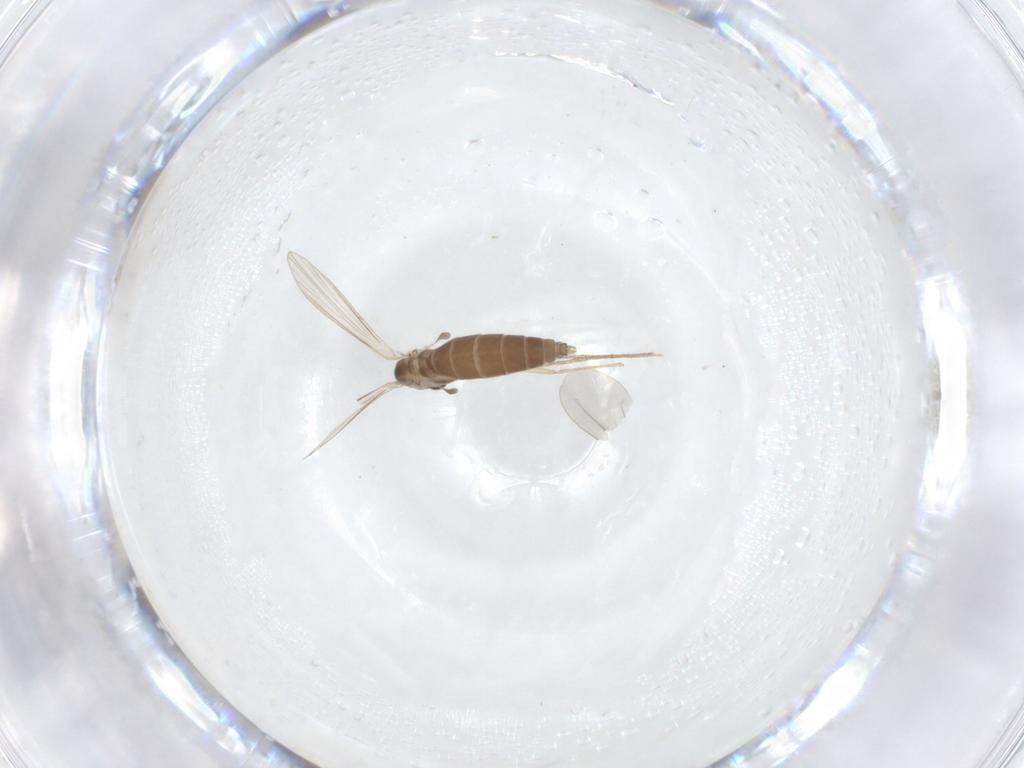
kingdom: Animalia
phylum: Arthropoda
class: Insecta
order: Diptera
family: Psychodidae
